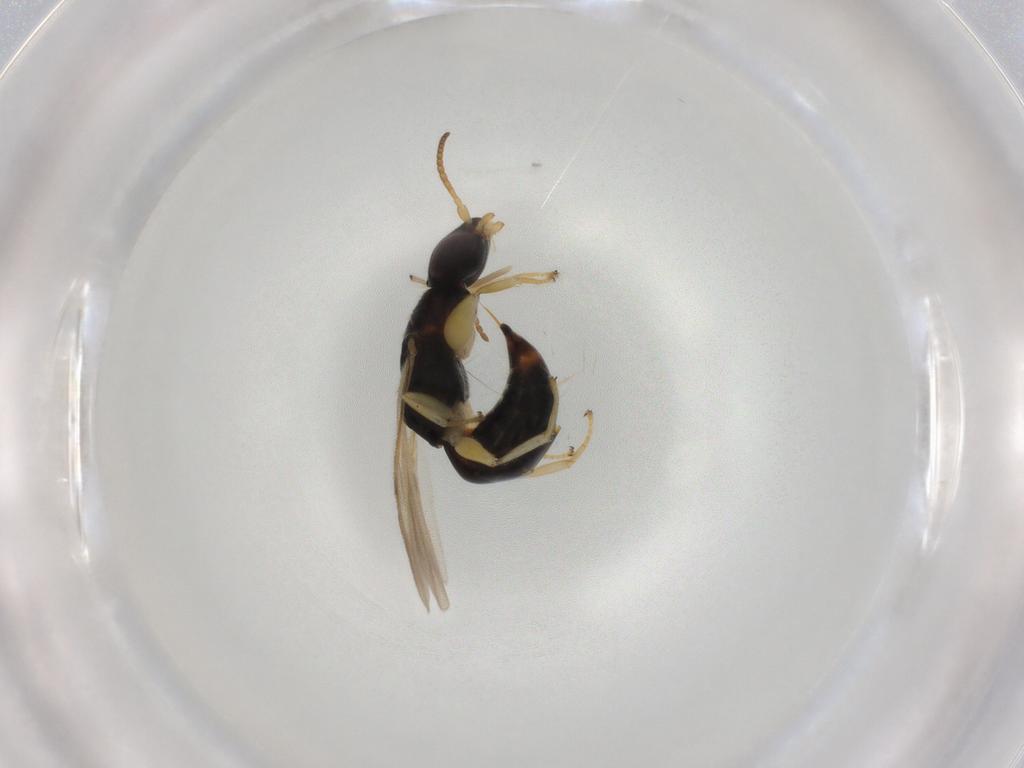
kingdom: Animalia
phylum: Arthropoda
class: Insecta
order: Hymenoptera
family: Bethylidae
